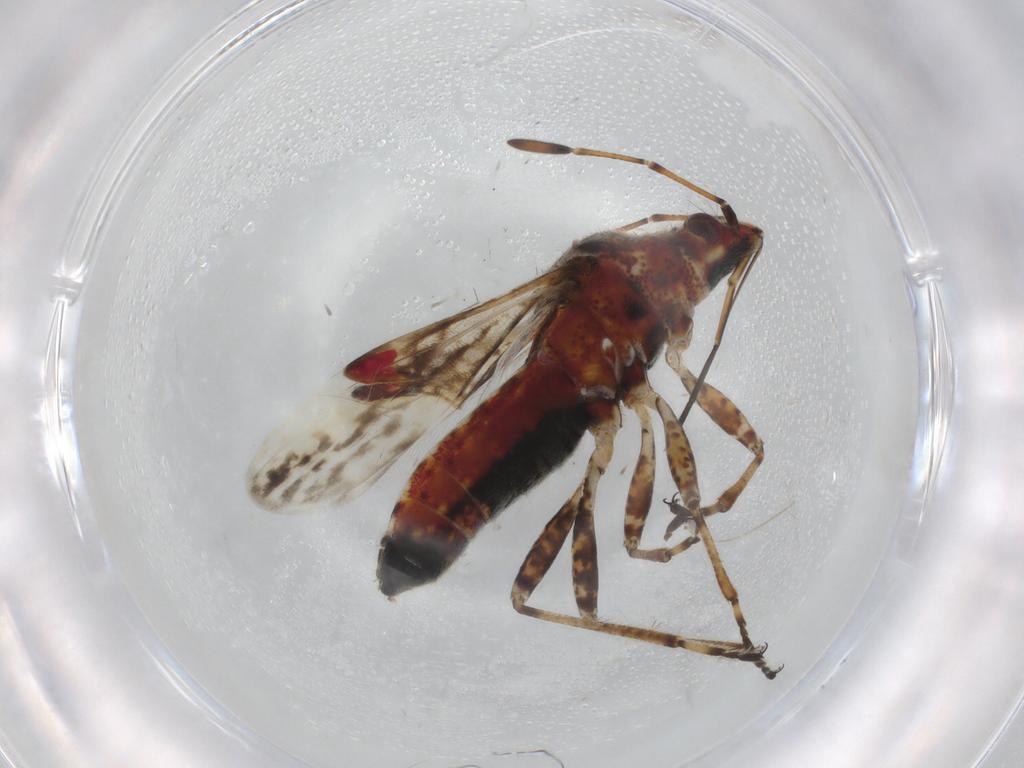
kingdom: Animalia
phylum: Arthropoda
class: Insecta
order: Hemiptera
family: Lygaeidae
